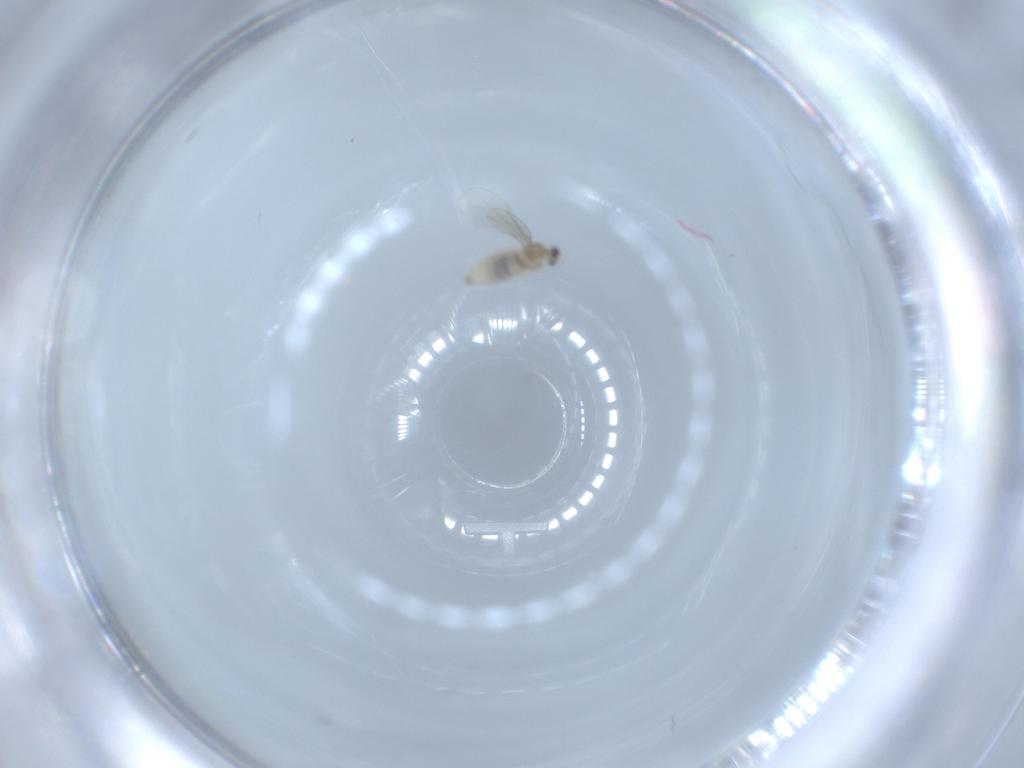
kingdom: Animalia
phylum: Arthropoda
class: Insecta
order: Diptera
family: Cecidomyiidae
